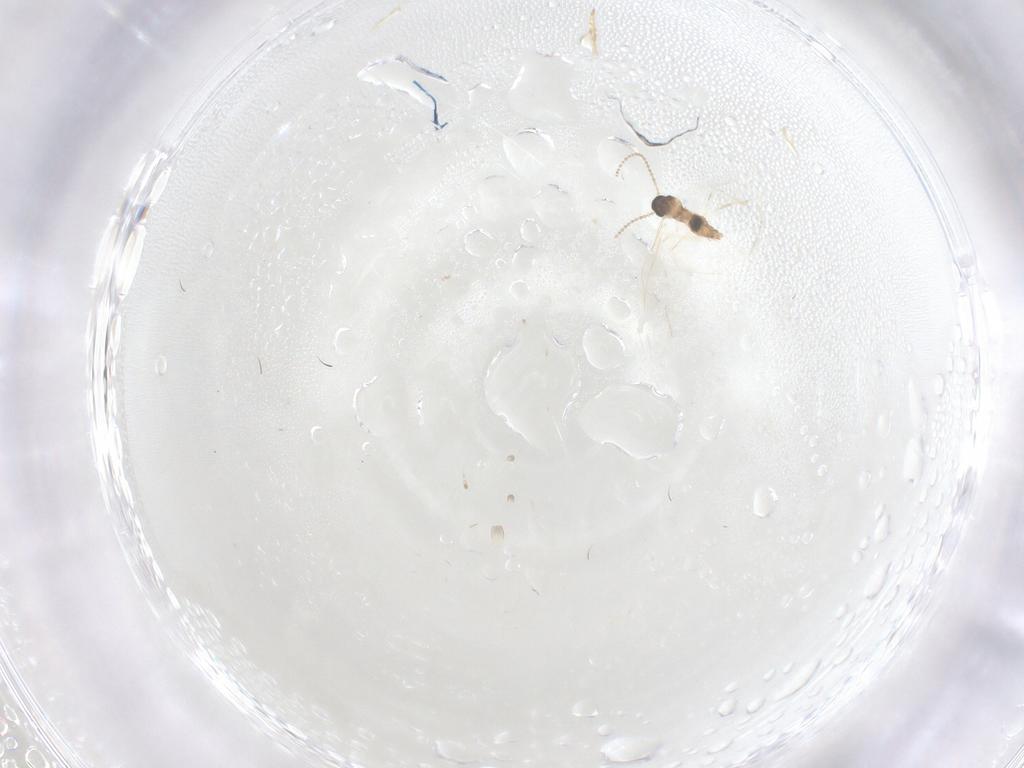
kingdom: Animalia
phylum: Arthropoda
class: Insecta
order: Diptera
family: Cecidomyiidae
